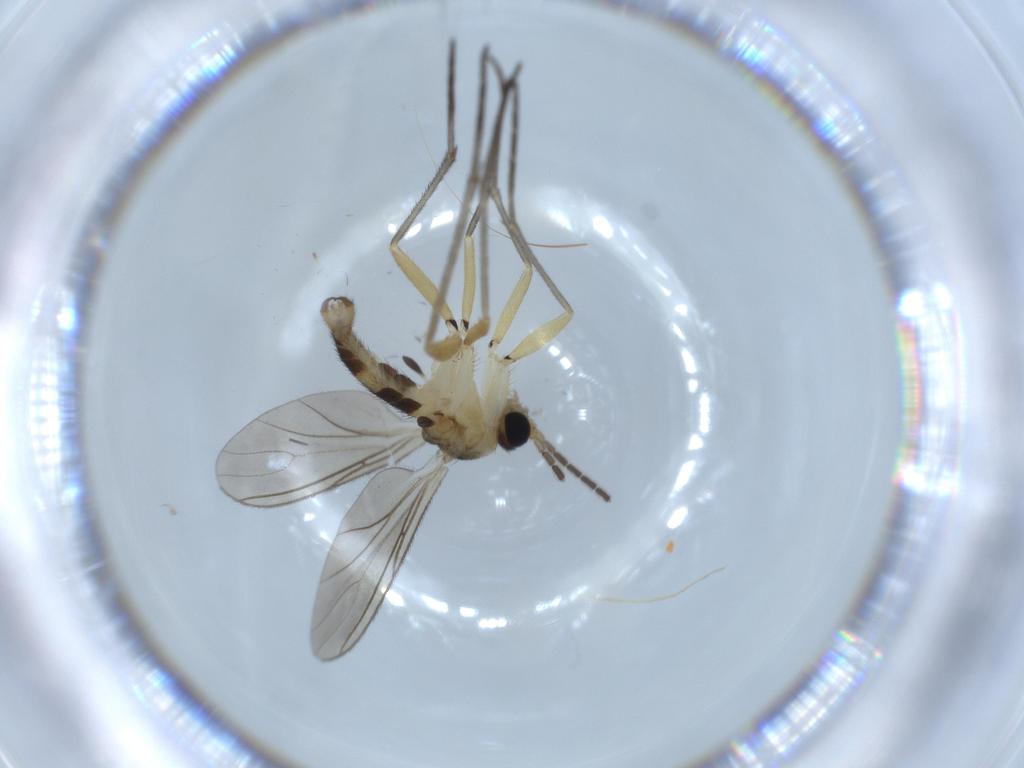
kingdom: Animalia
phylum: Arthropoda
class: Insecta
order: Diptera
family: Sciaridae
